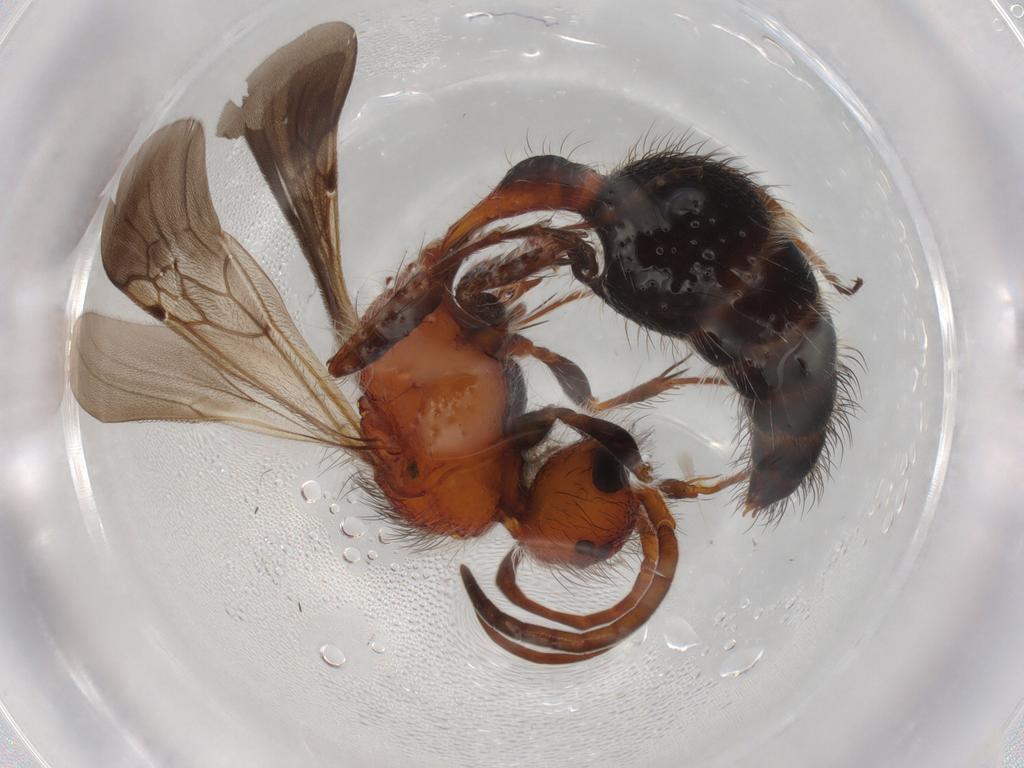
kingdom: Animalia
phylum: Arthropoda
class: Insecta
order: Hymenoptera
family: Mutillidae
